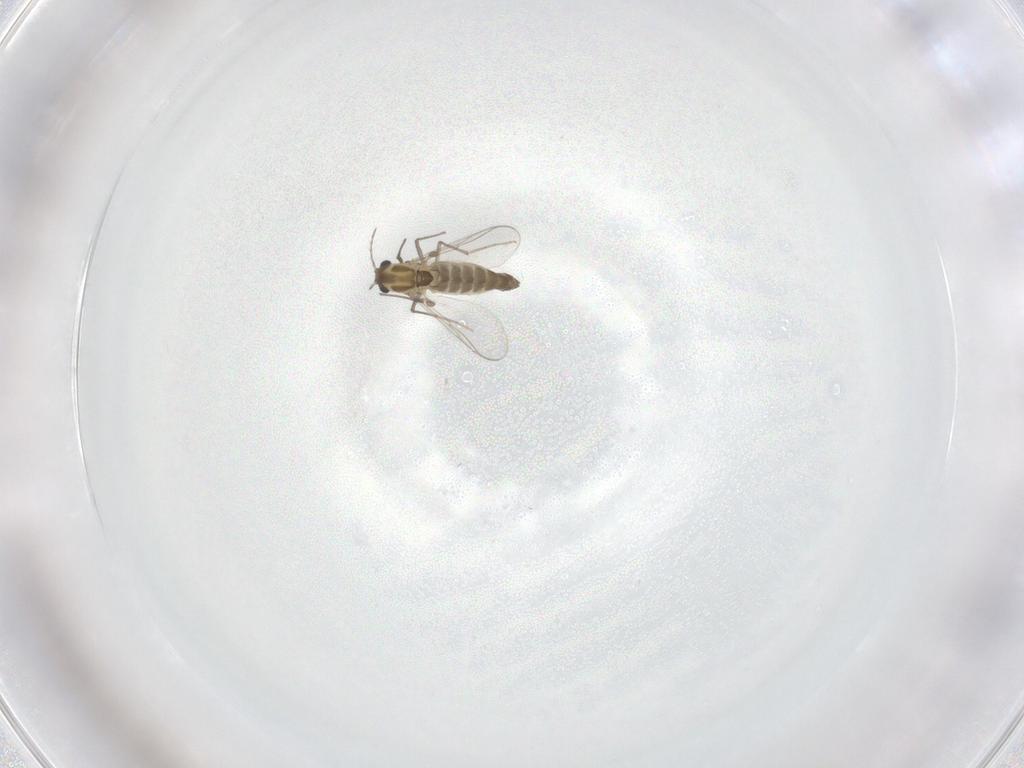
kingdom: Animalia
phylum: Arthropoda
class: Insecta
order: Diptera
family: Chironomidae
